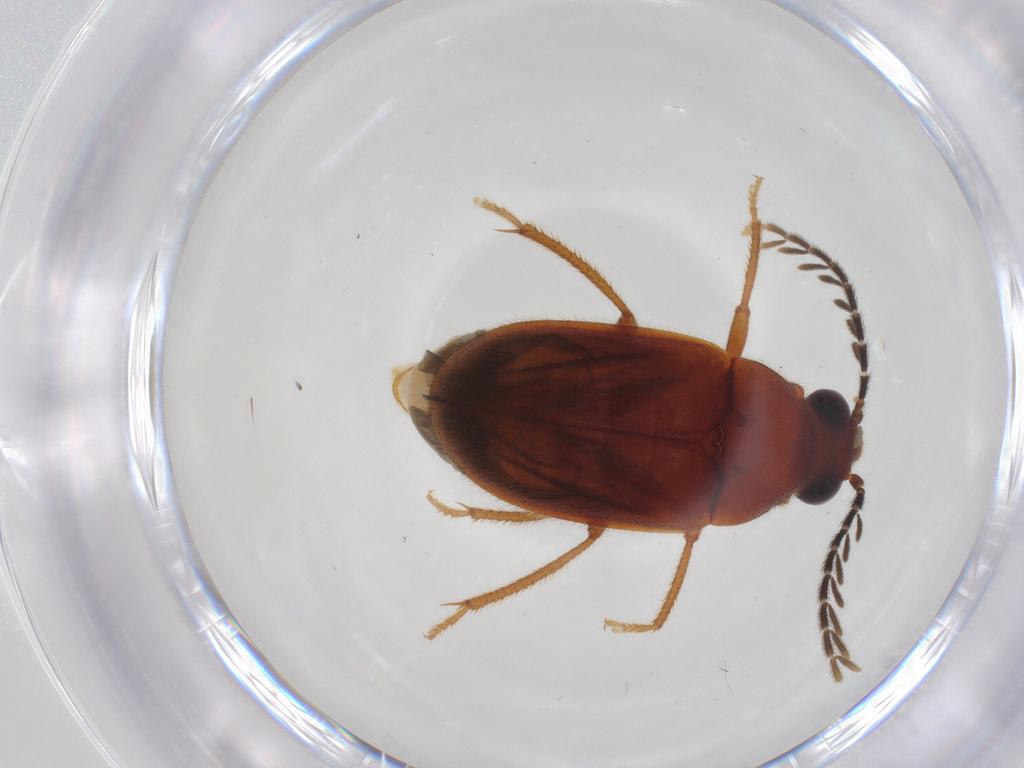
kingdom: Animalia
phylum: Arthropoda
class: Insecta
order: Coleoptera
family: Ptilodactylidae
